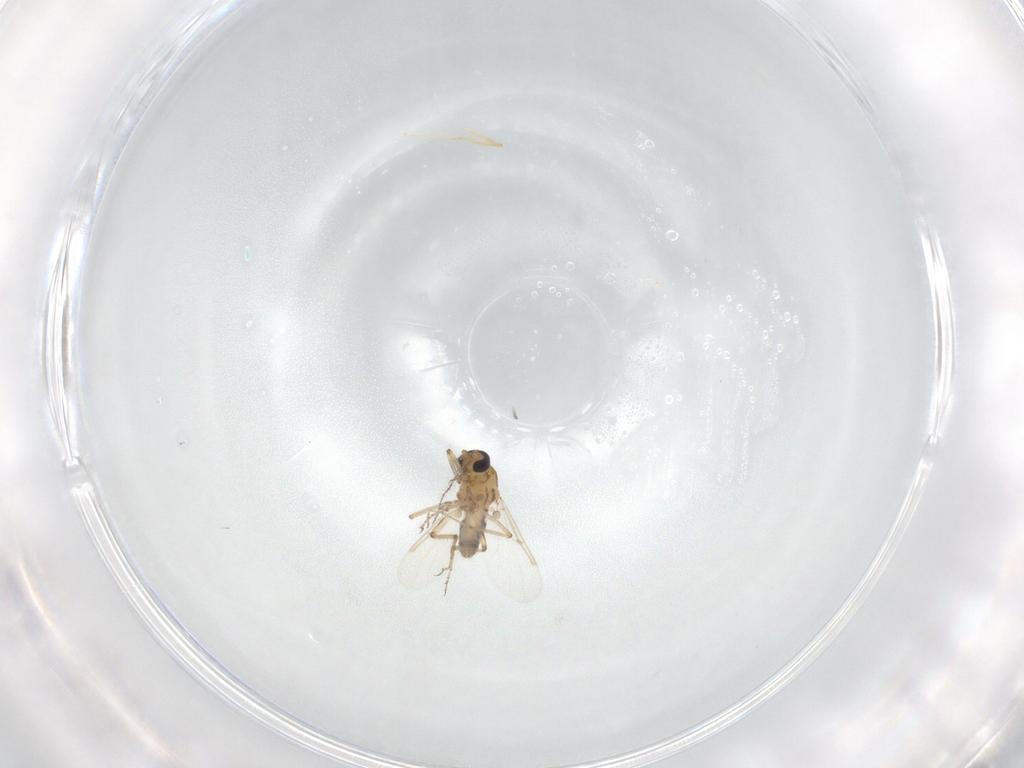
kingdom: Animalia
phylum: Arthropoda
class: Insecta
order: Diptera
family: Ceratopogonidae
